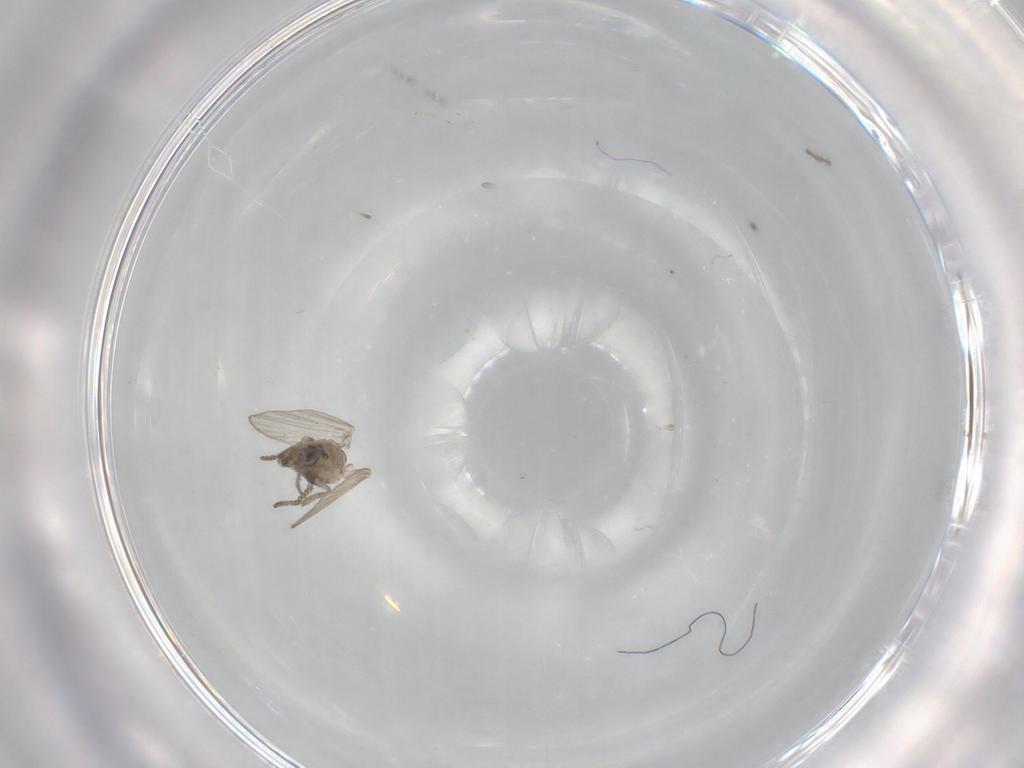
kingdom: Animalia
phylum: Arthropoda
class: Insecta
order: Diptera
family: Psychodidae
